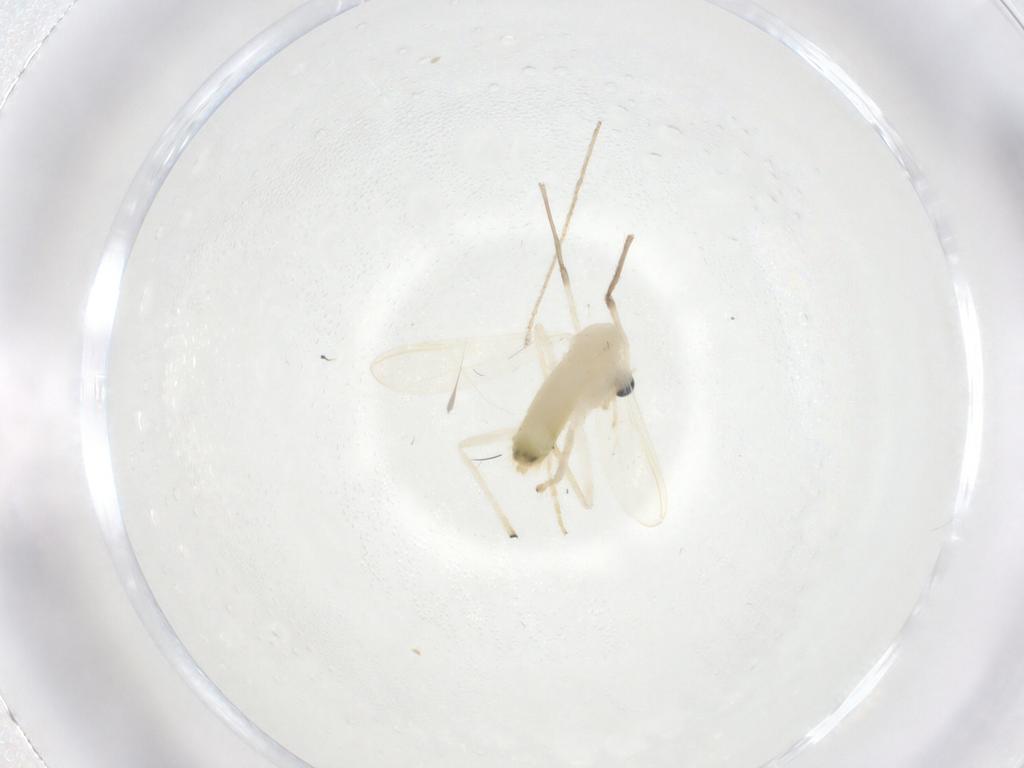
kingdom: Animalia
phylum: Arthropoda
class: Insecta
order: Diptera
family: Chironomidae
